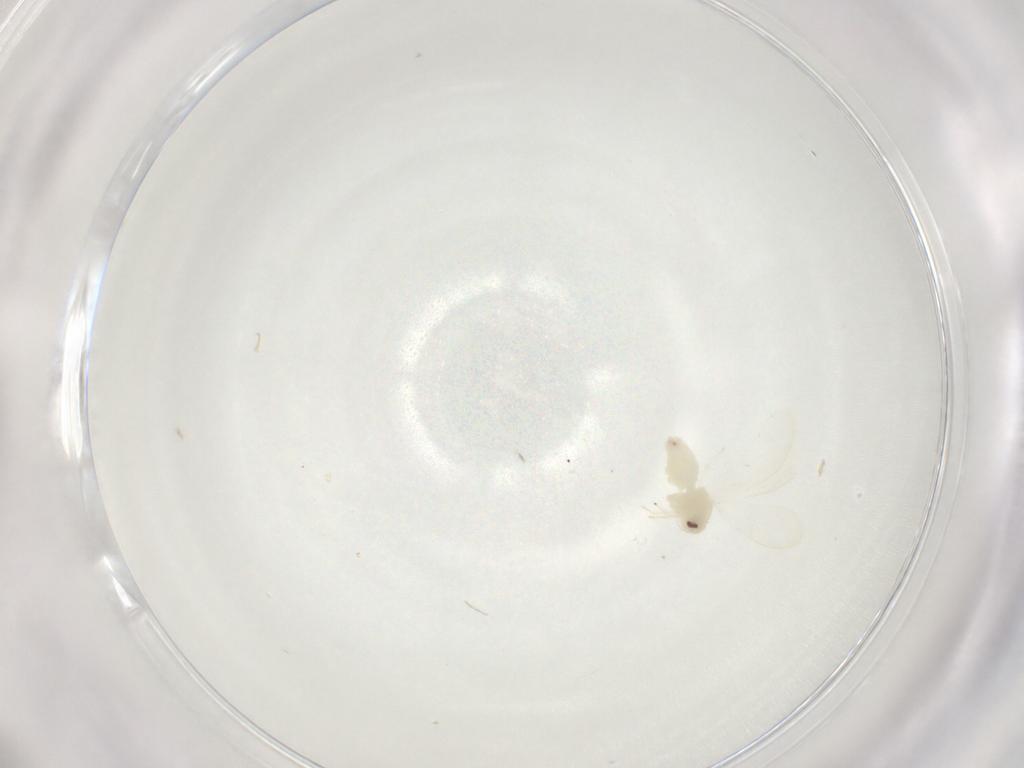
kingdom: Animalia
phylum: Arthropoda
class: Insecta
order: Hemiptera
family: Aleyrodidae
